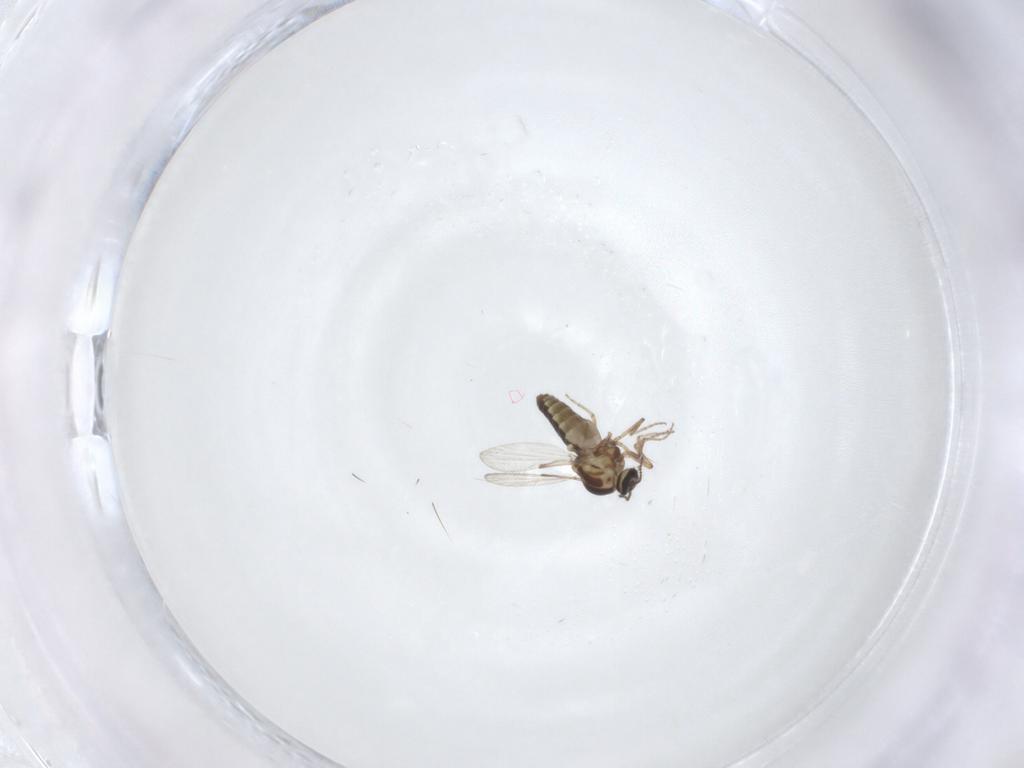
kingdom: Animalia
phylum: Arthropoda
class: Insecta
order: Diptera
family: Ceratopogonidae
